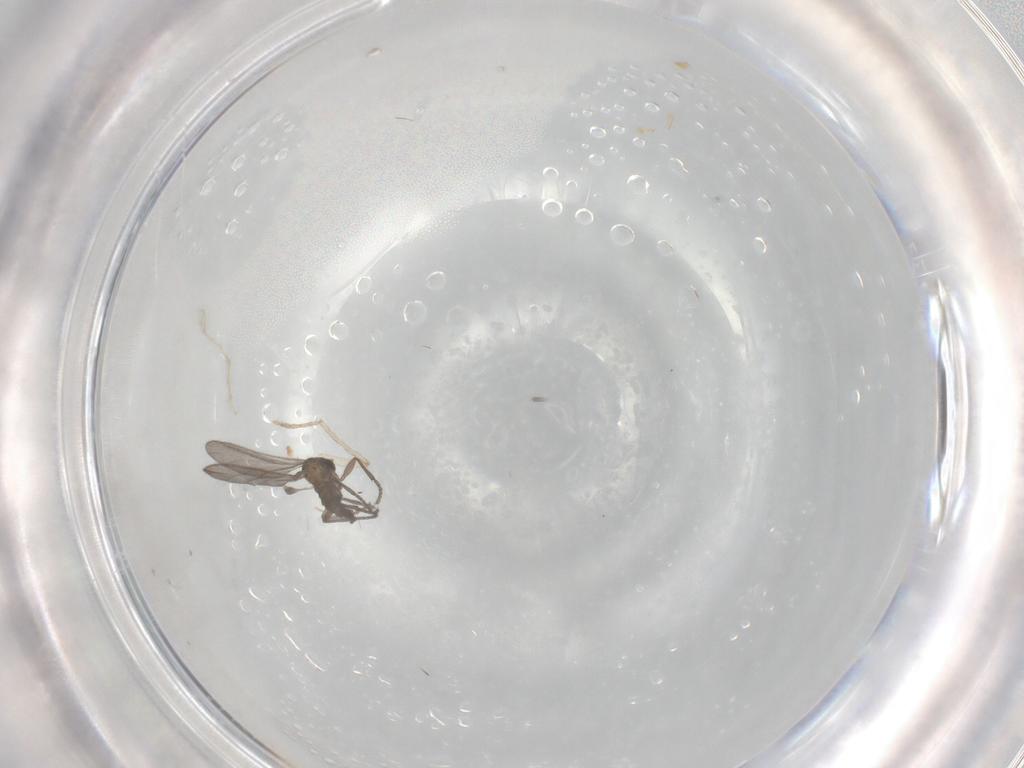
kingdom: Animalia
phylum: Arthropoda
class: Insecta
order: Diptera
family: Sciaridae
